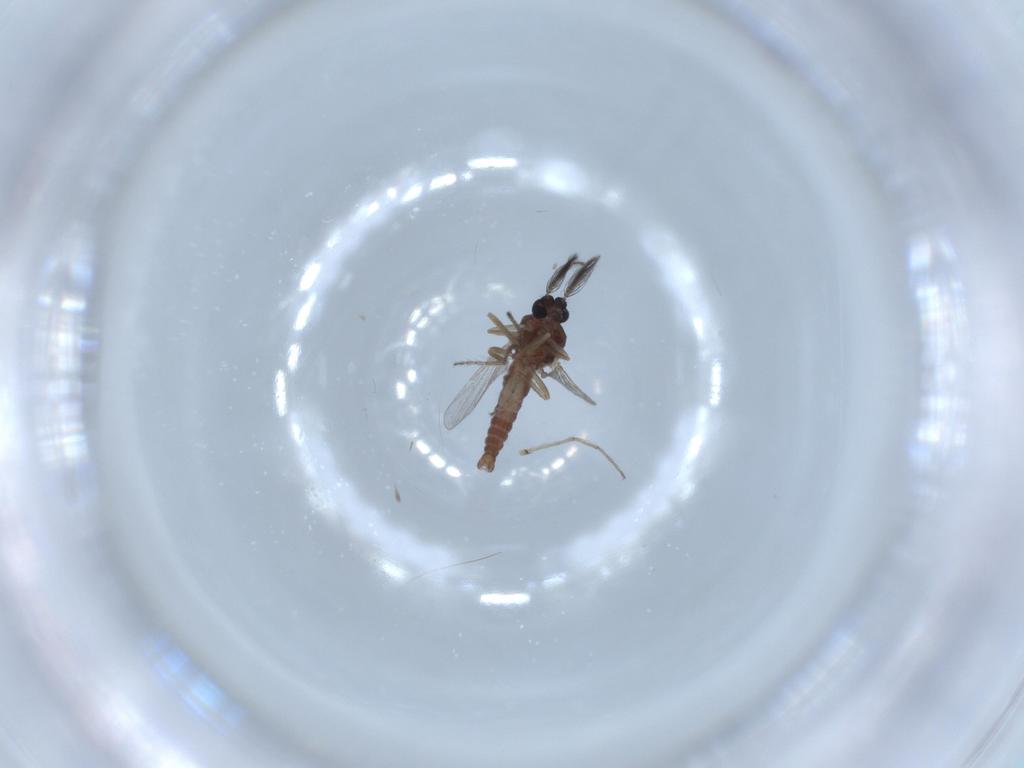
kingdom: Animalia
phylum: Arthropoda
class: Insecta
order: Diptera
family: Ceratopogonidae
